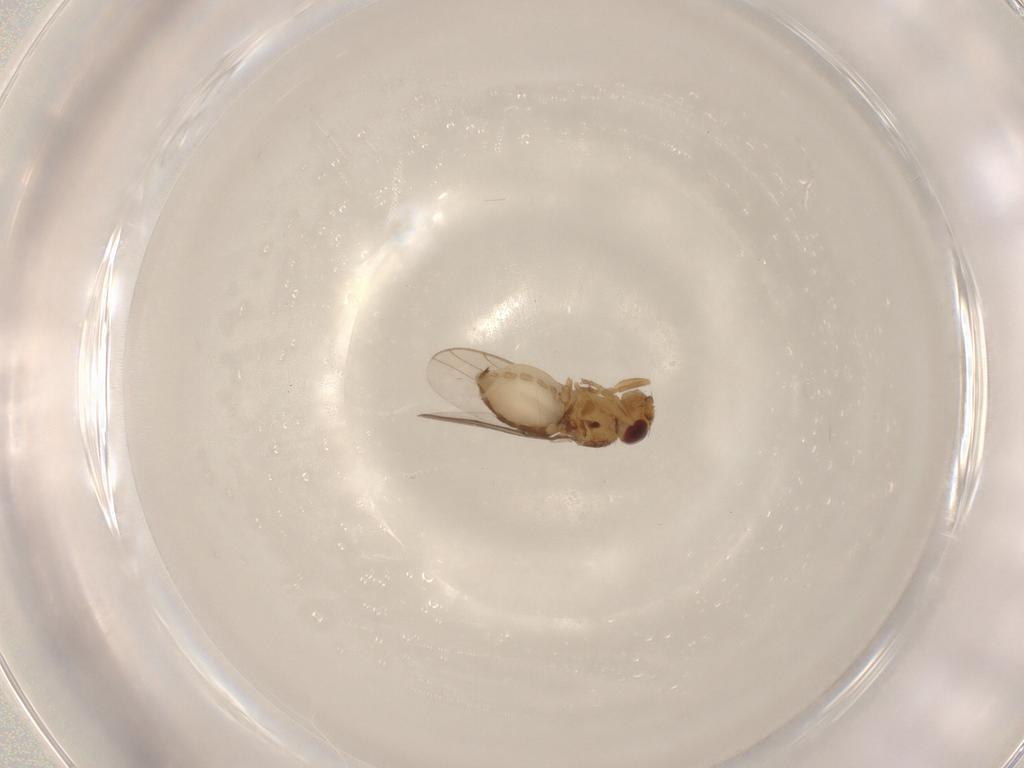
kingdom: Animalia
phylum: Arthropoda
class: Insecta
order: Diptera
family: Chloropidae
